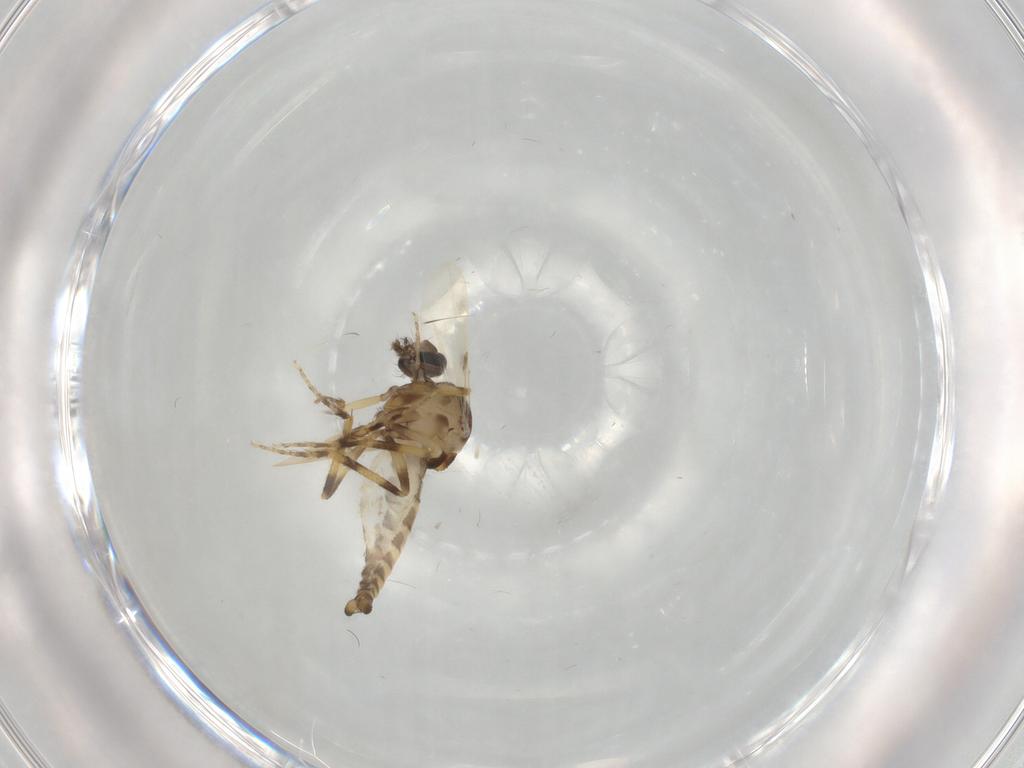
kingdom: Animalia
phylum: Arthropoda
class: Insecta
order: Diptera
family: Ceratopogonidae
